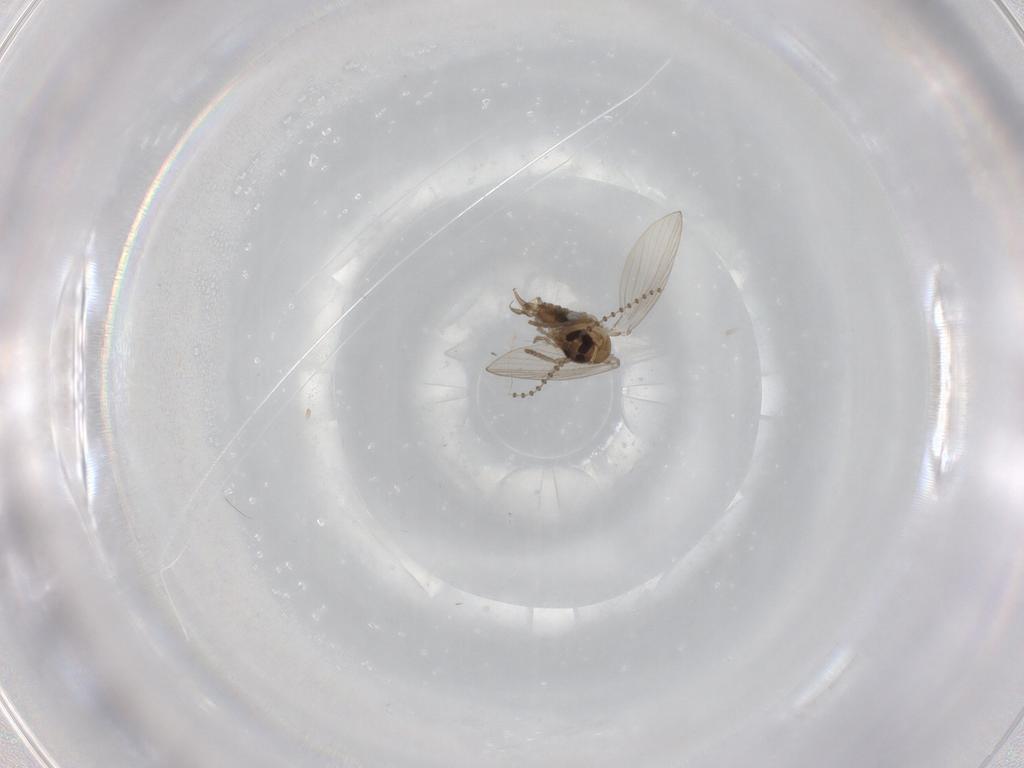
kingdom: Animalia
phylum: Arthropoda
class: Insecta
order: Diptera
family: Psychodidae
